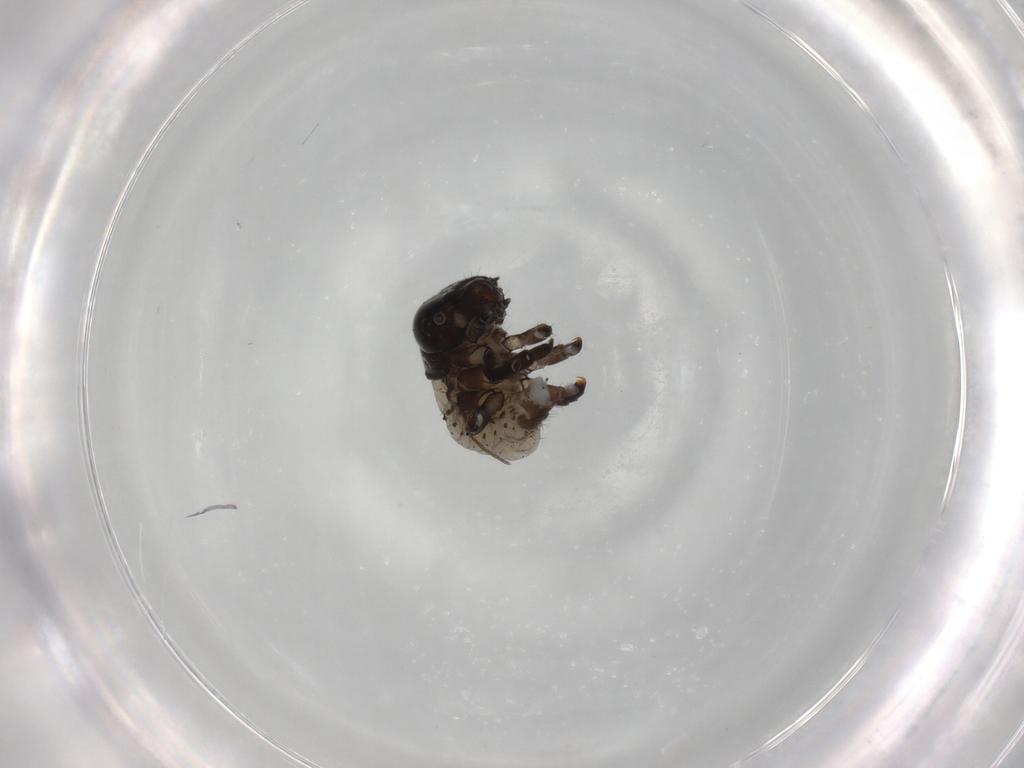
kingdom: Animalia
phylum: Arthropoda
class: Insecta
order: Coleoptera
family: Chrysomelidae
